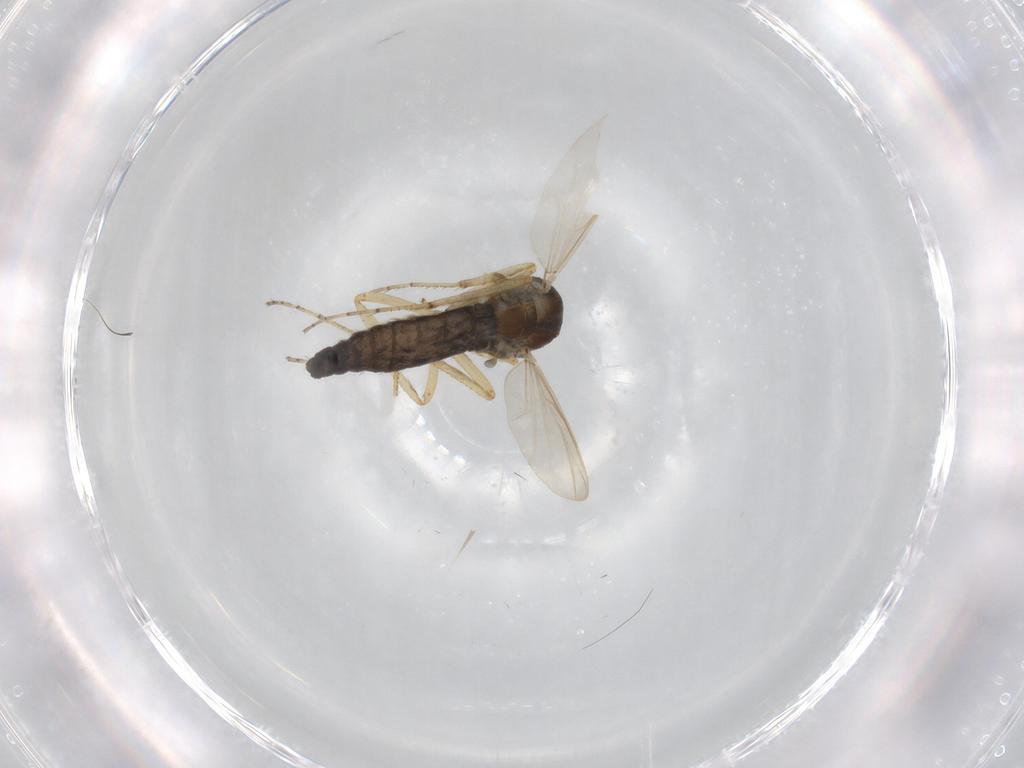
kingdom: Animalia
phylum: Arthropoda
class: Insecta
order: Diptera
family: Ceratopogonidae
